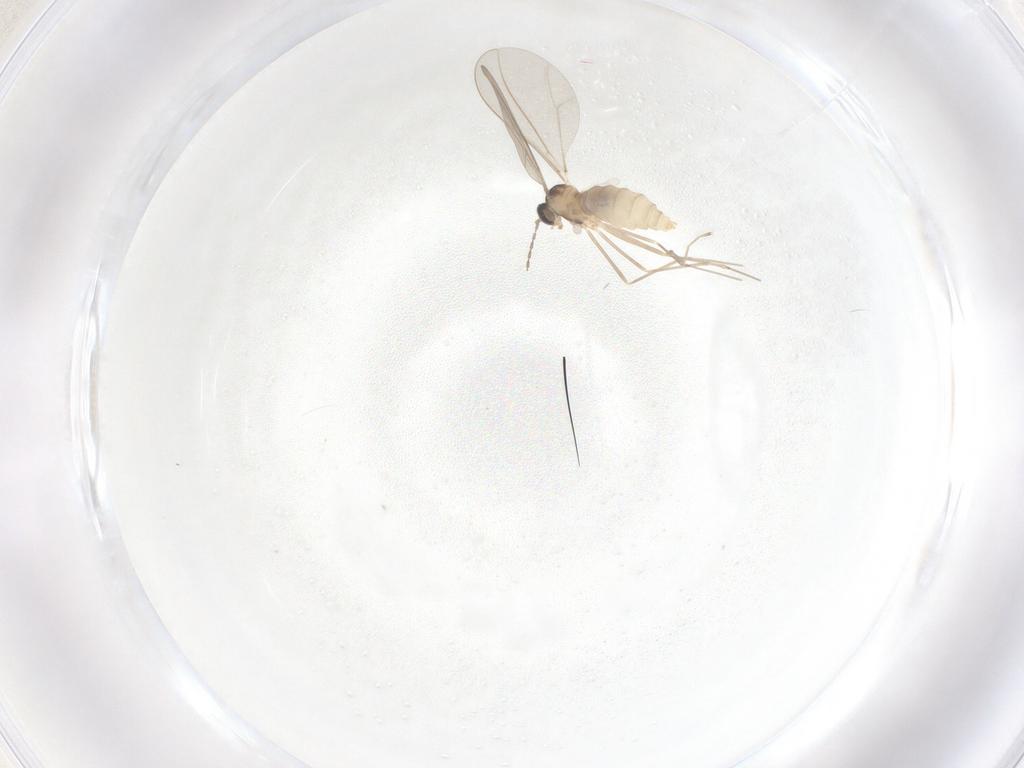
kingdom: Animalia
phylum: Arthropoda
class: Insecta
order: Diptera
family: Cecidomyiidae
